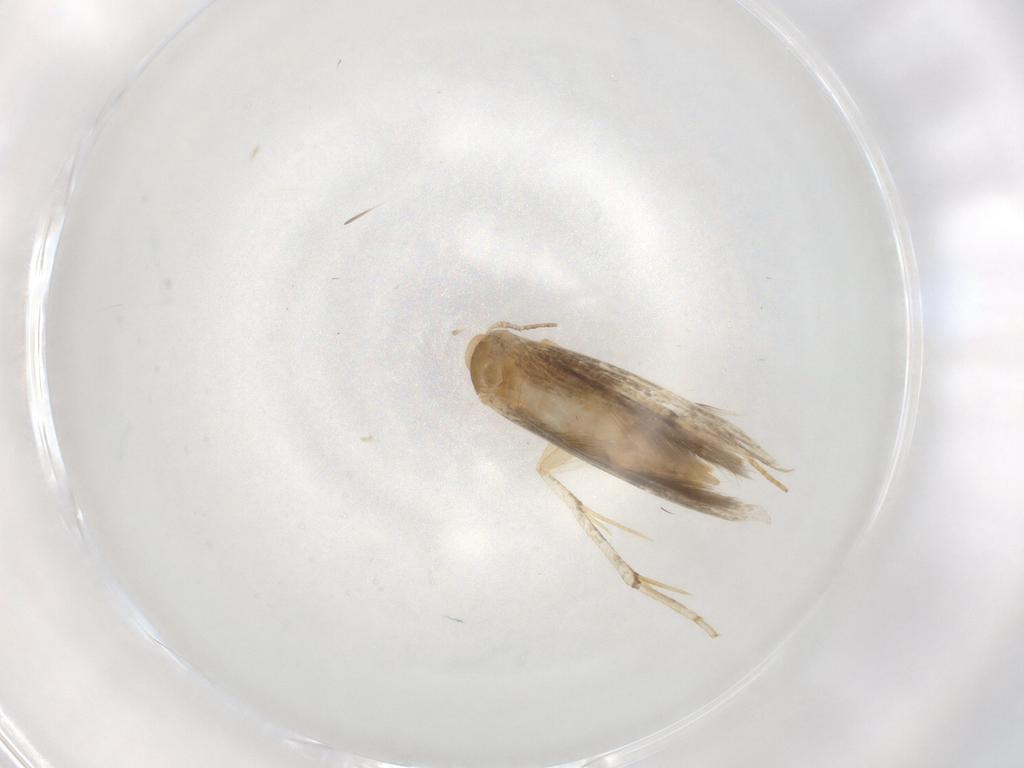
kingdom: Animalia
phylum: Arthropoda
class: Insecta
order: Lepidoptera
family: Stathmopodidae
